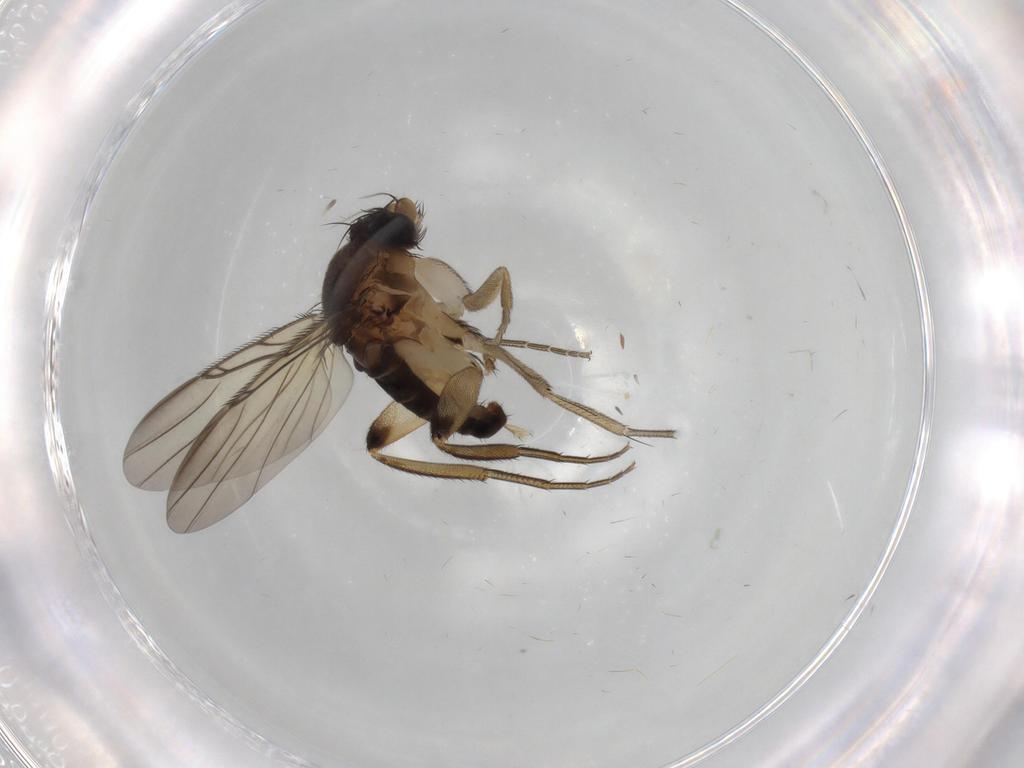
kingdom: Animalia
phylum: Arthropoda
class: Insecta
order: Diptera
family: Phoridae
